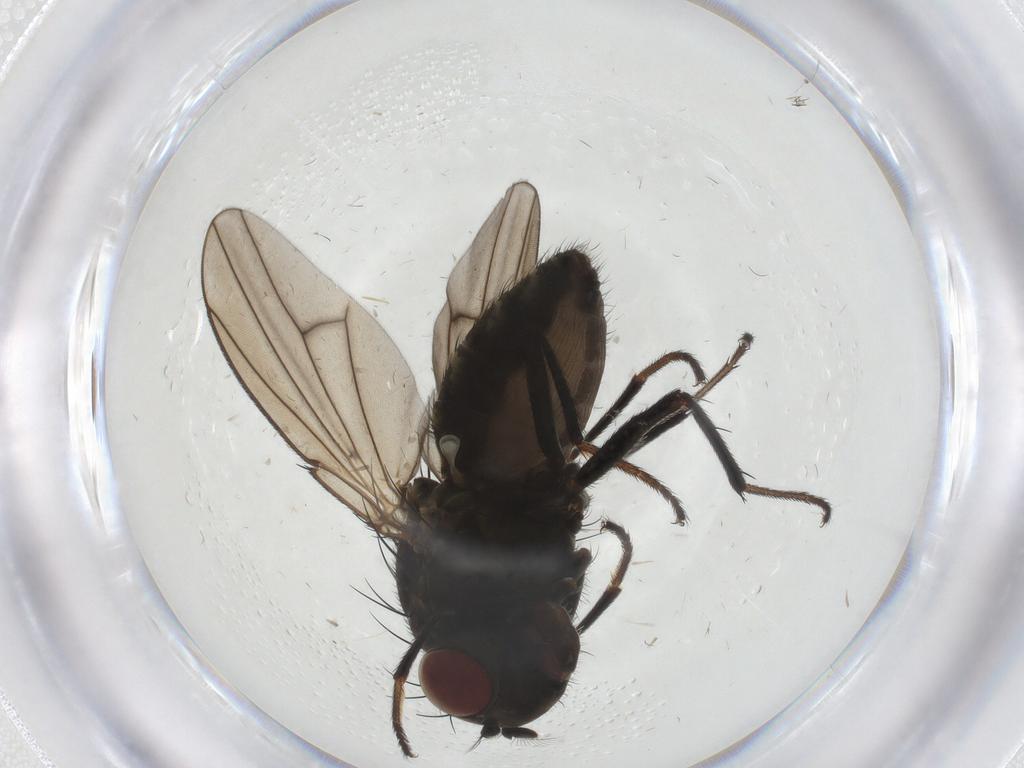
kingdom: Animalia
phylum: Arthropoda
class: Insecta
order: Diptera
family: Ephydridae
